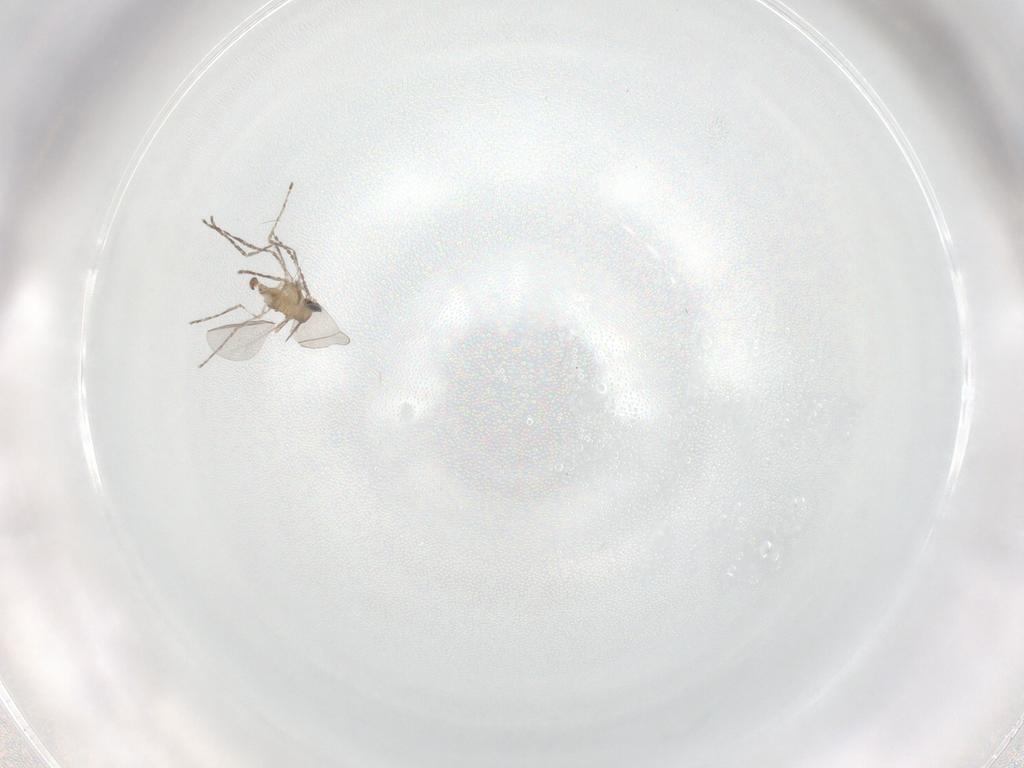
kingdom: Animalia
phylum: Arthropoda
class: Insecta
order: Diptera
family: Cecidomyiidae
